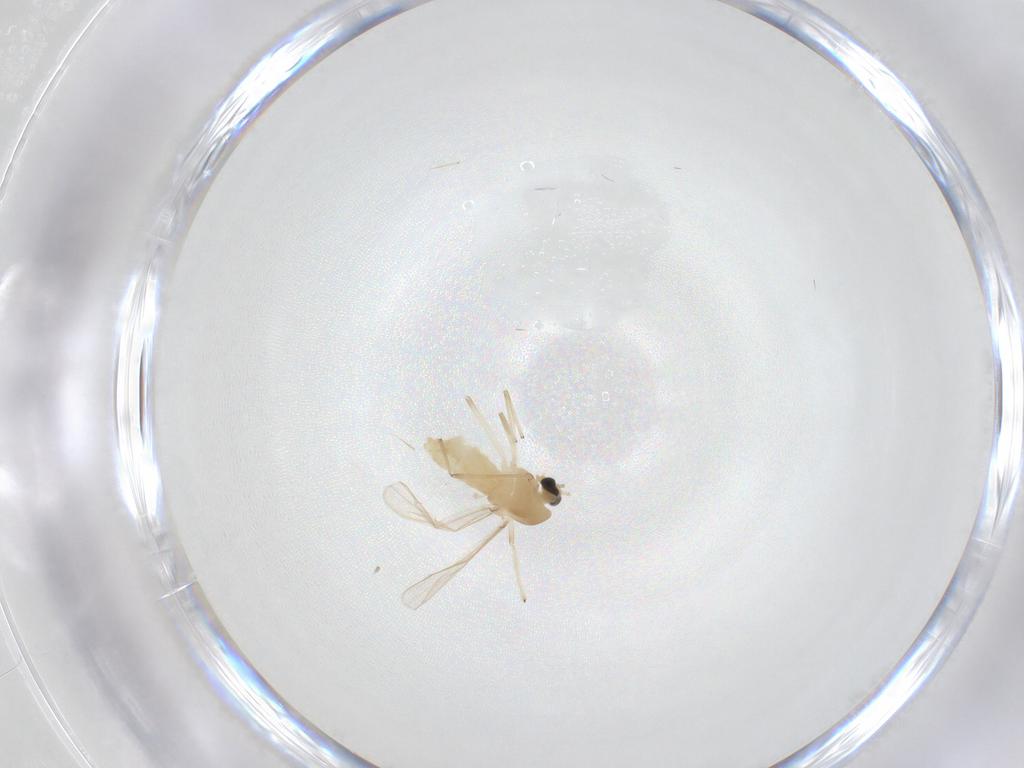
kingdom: Animalia
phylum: Arthropoda
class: Insecta
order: Diptera
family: Chironomidae
